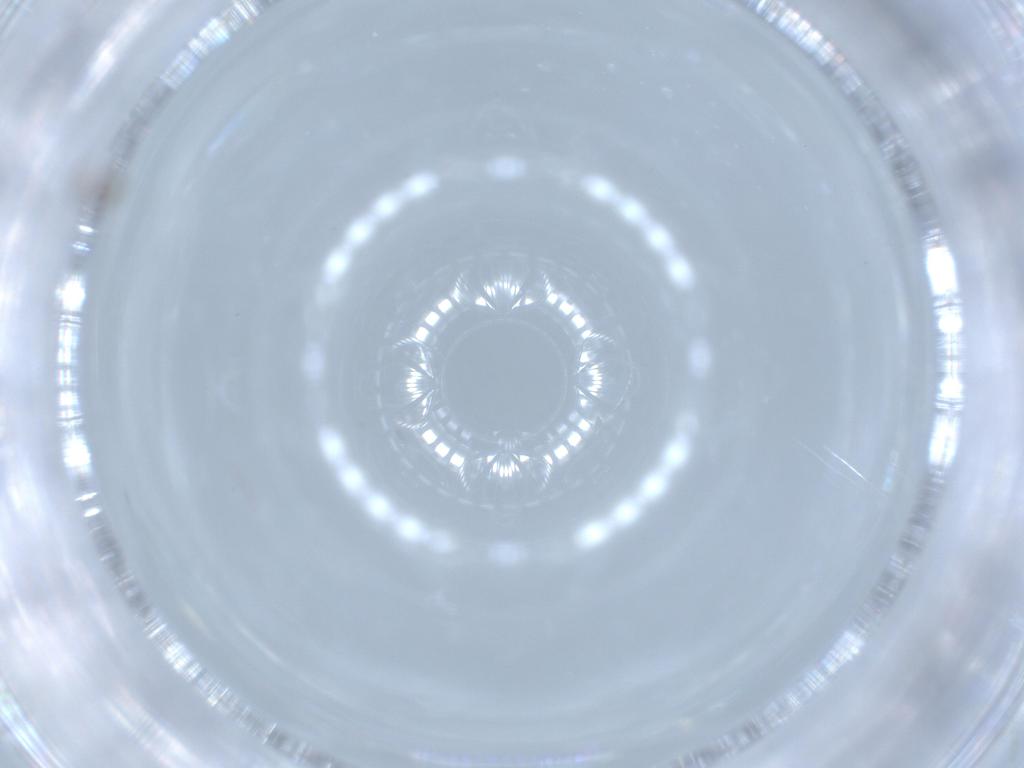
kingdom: Animalia
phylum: Arthropoda
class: Insecta
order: Hymenoptera
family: Aphelinidae
